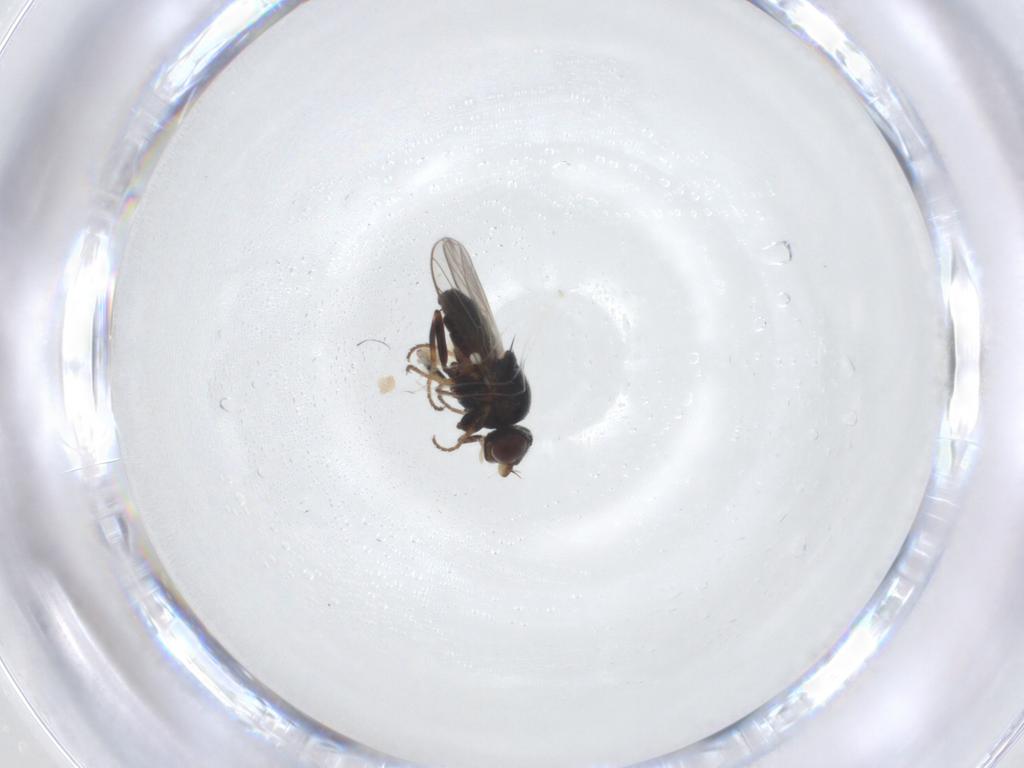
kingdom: Animalia
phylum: Arthropoda
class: Insecta
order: Diptera
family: Chloropidae
